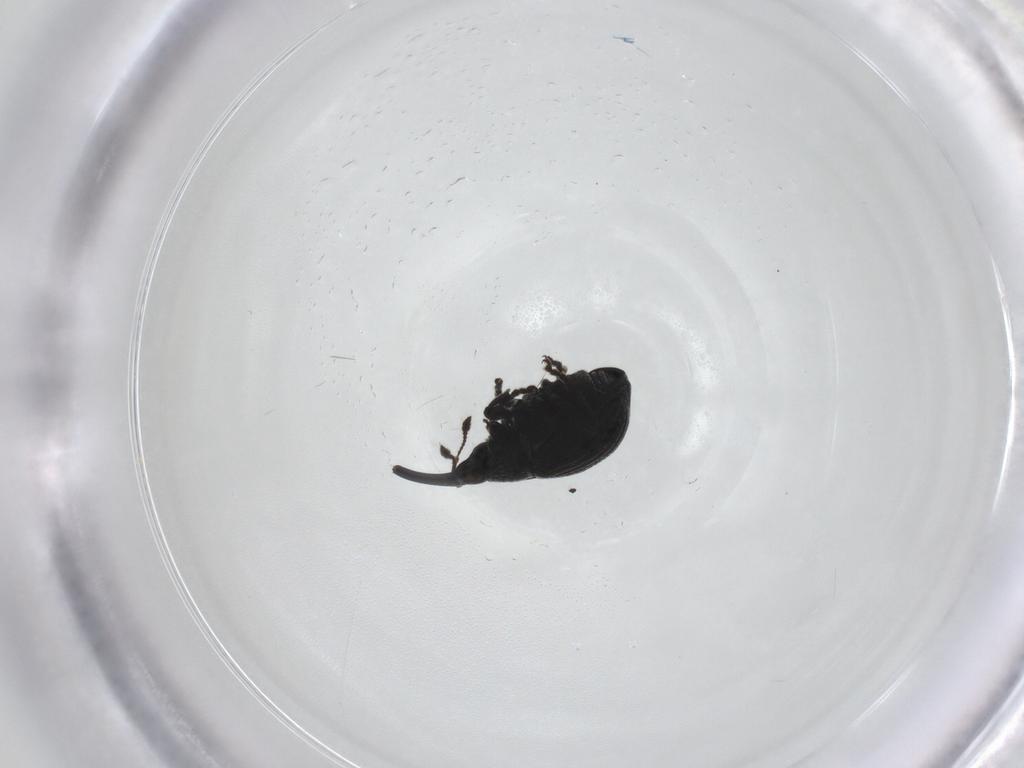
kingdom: Animalia
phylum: Arthropoda
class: Insecta
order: Coleoptera
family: Brentidae
